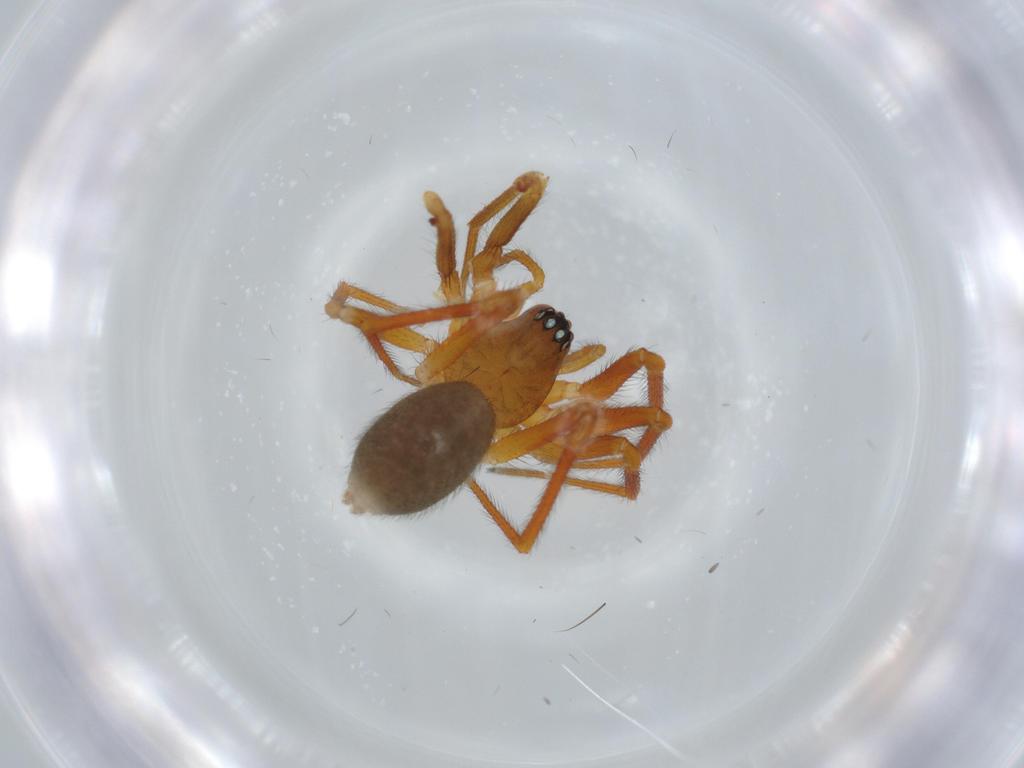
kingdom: Animalia
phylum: Arthropoda
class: Arachnida
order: Araneae
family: Linyphiidae
